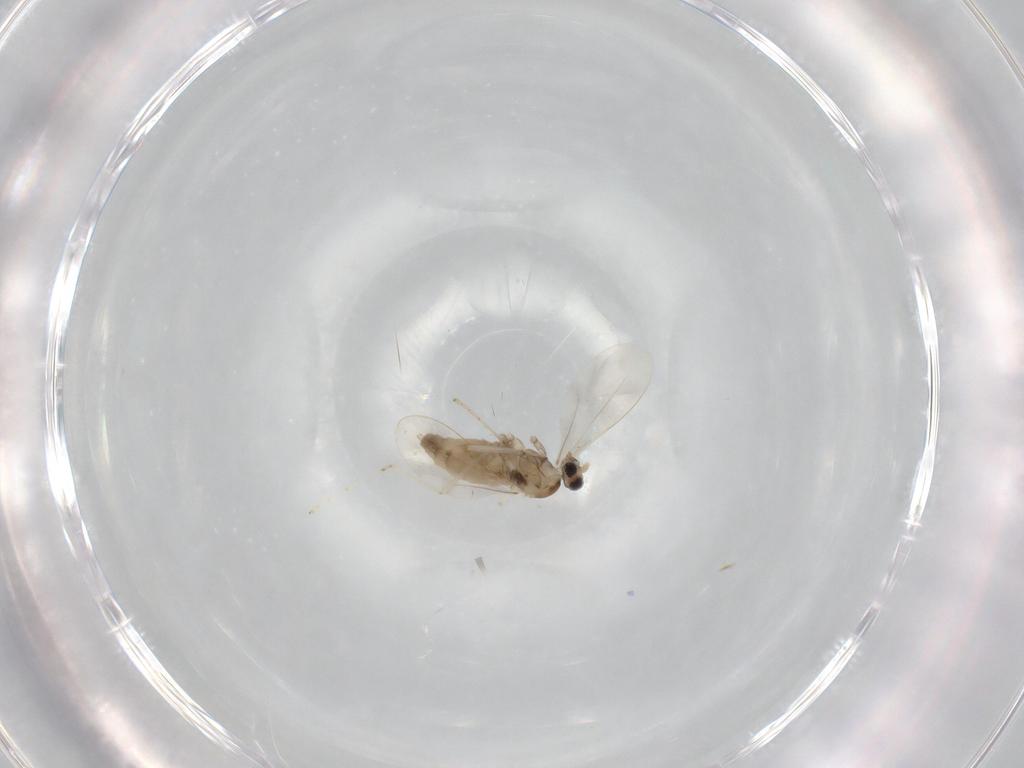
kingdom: Animalia
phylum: Arthropoda
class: Insecta
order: Diptera
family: Cecidomyiidae
